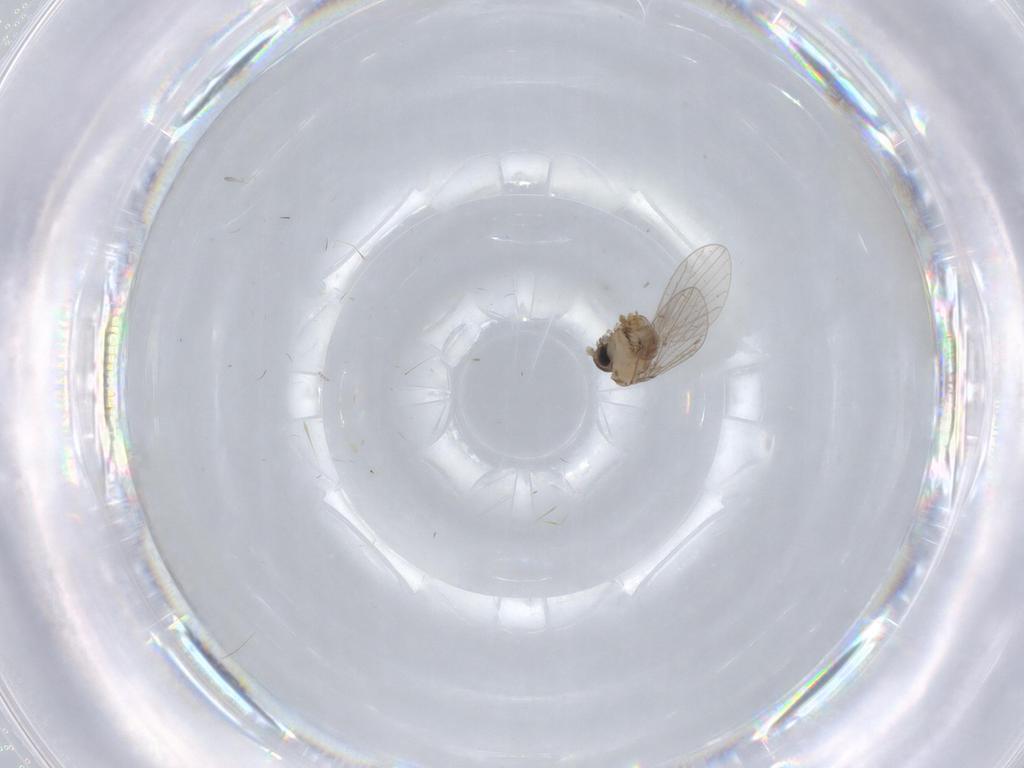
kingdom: Animalia
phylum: Arthropoda
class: Insecta
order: Diptera
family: Psychodidae
